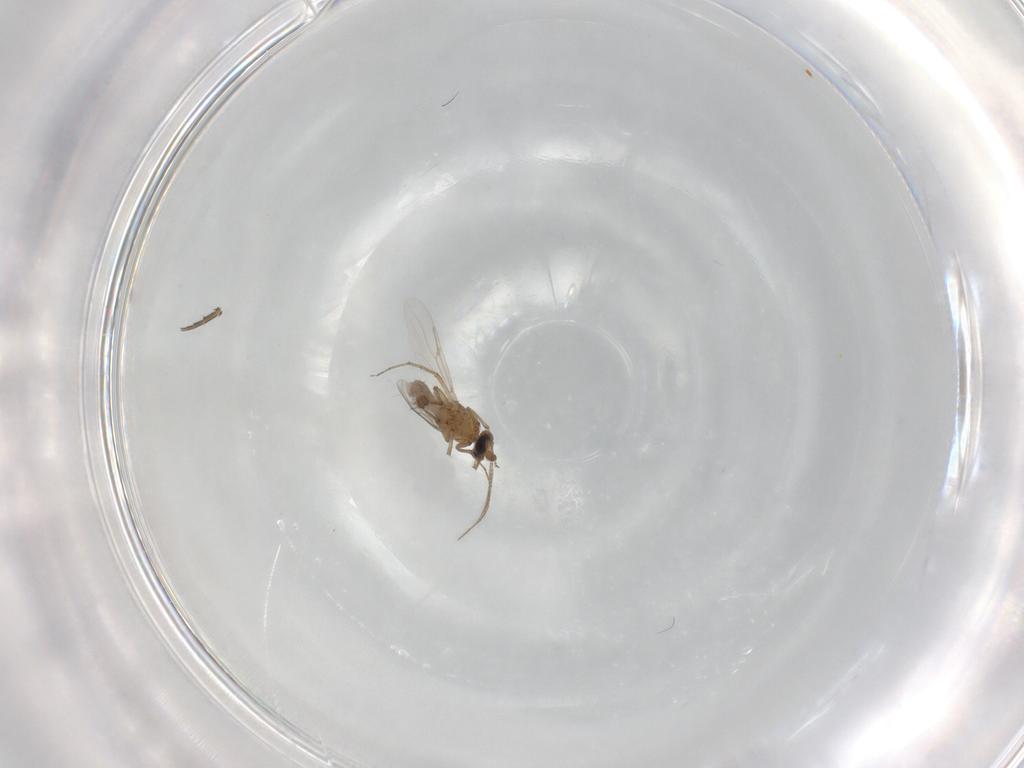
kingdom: Animalia
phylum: Arthropoda
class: Insecta
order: Diptera
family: Phoridae
